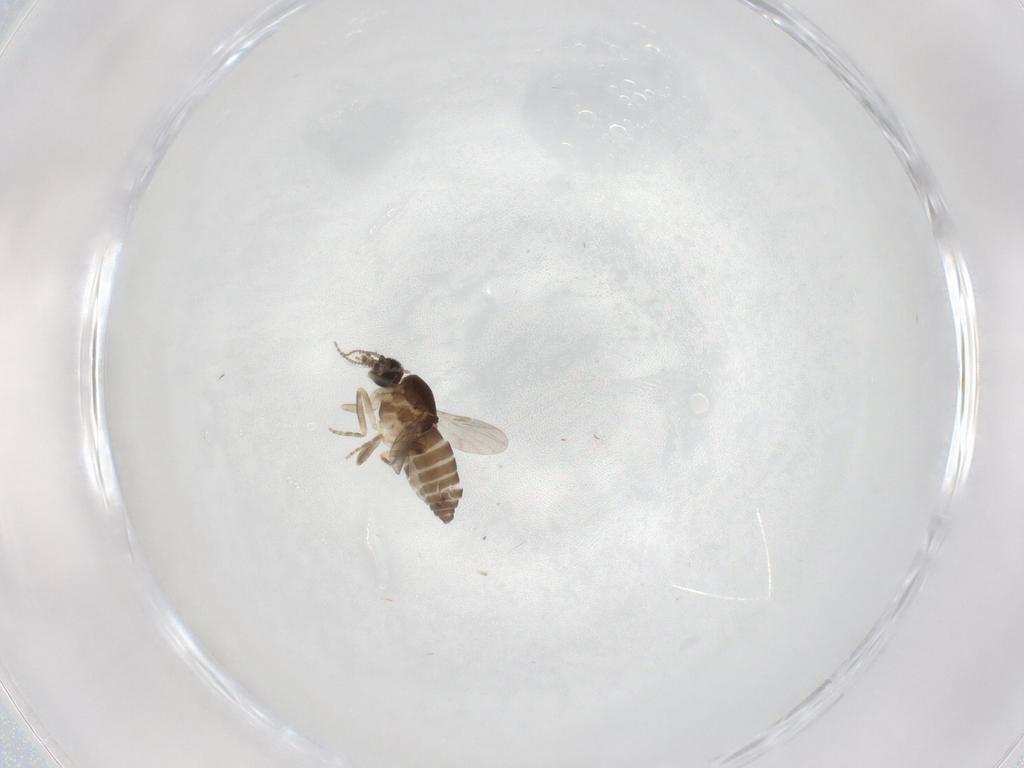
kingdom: Animalia
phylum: Arthropoda
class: Insecta
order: Diptera
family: Ceratopogonidae
